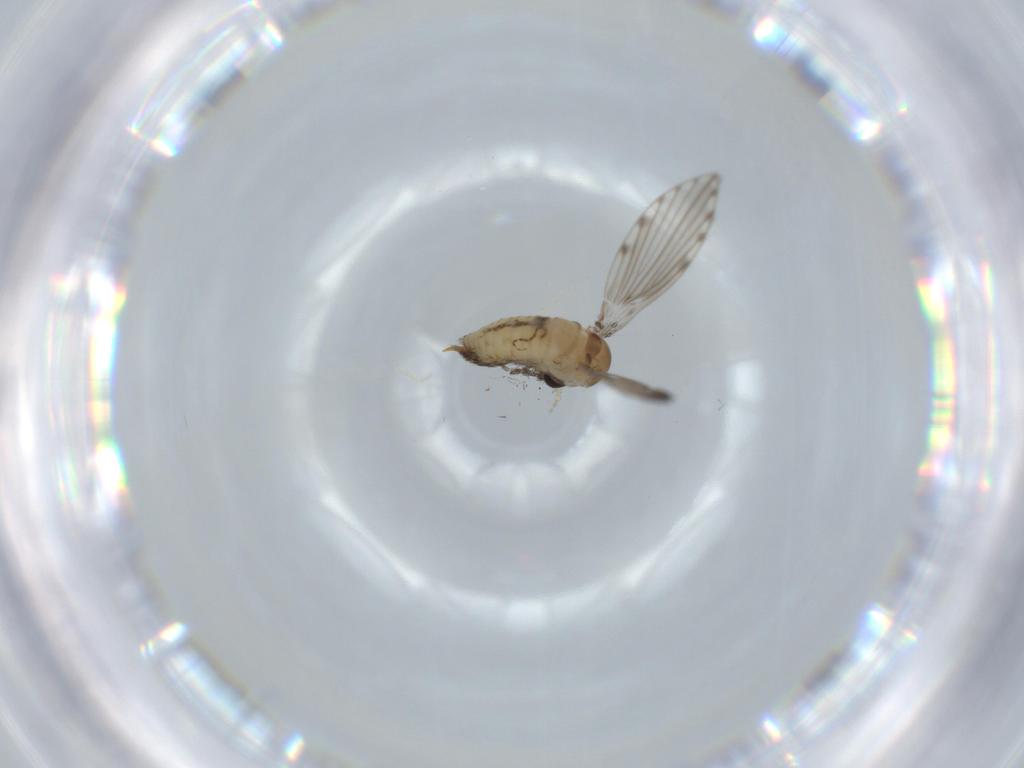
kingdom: Animalia
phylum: Arthropoda
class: Insecta
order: Diptera
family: Psychodidae
